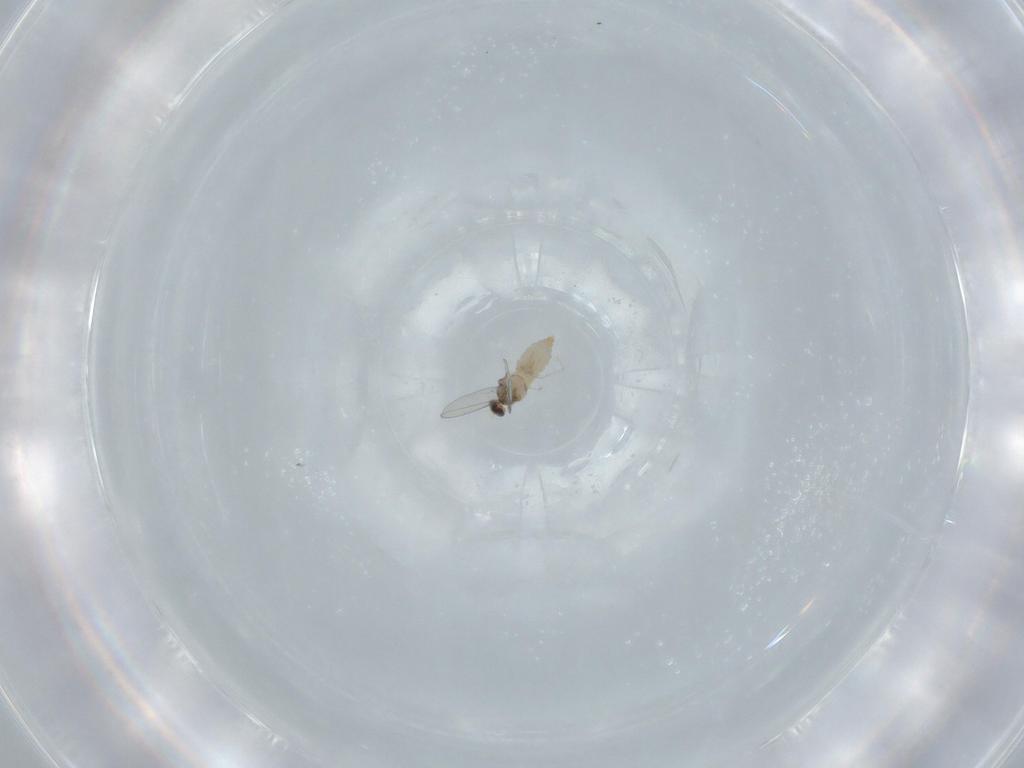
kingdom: Animalia
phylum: Arthropoda
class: Insecta
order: Diptera
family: Cecidomyiidae
